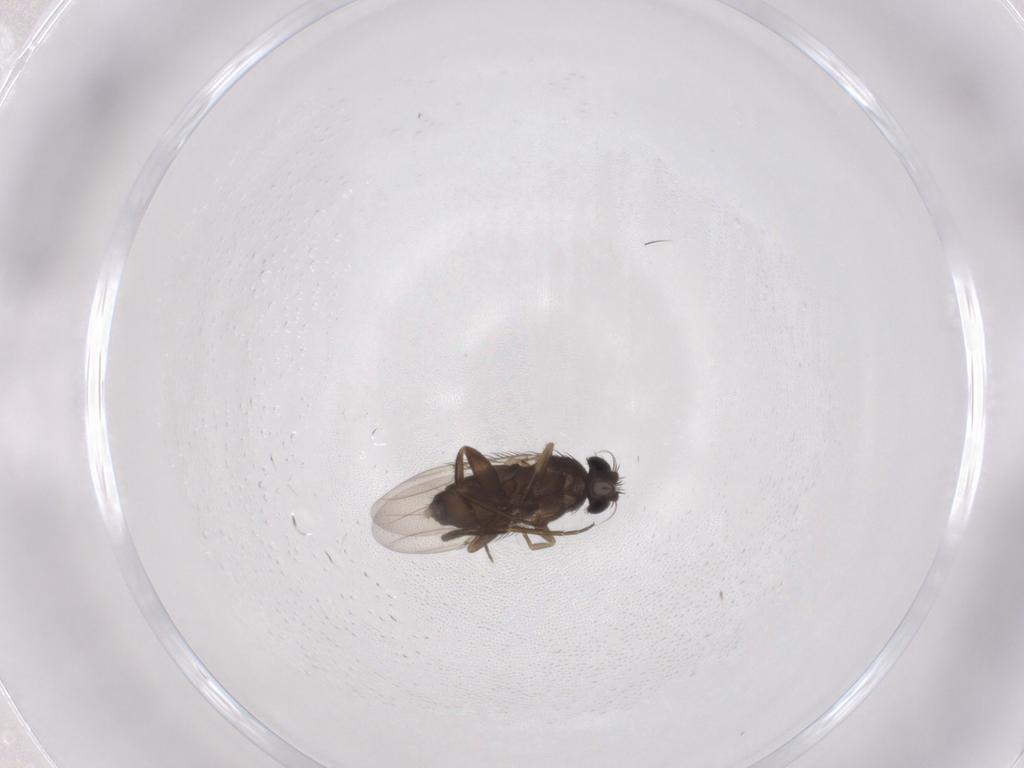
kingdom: Animalia
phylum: Arthropoda
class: Insecta
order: Diptera
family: Phoridae
